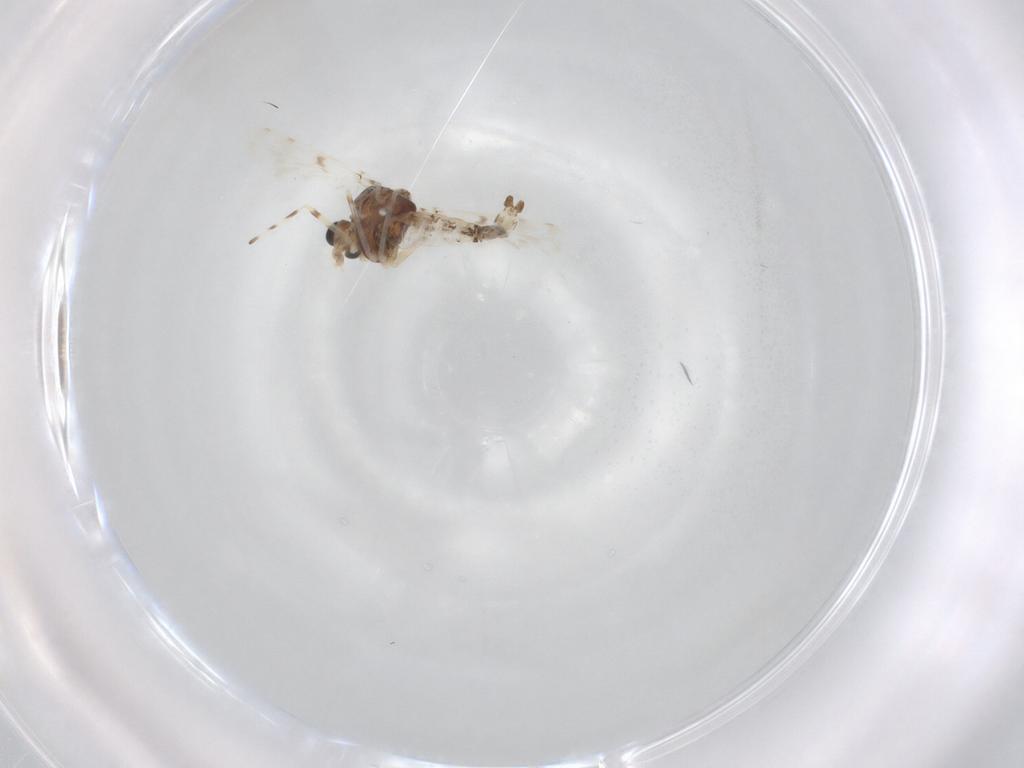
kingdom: Animalia
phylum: Arthropoda
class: Insecta
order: Diptera
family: Chironomidae
